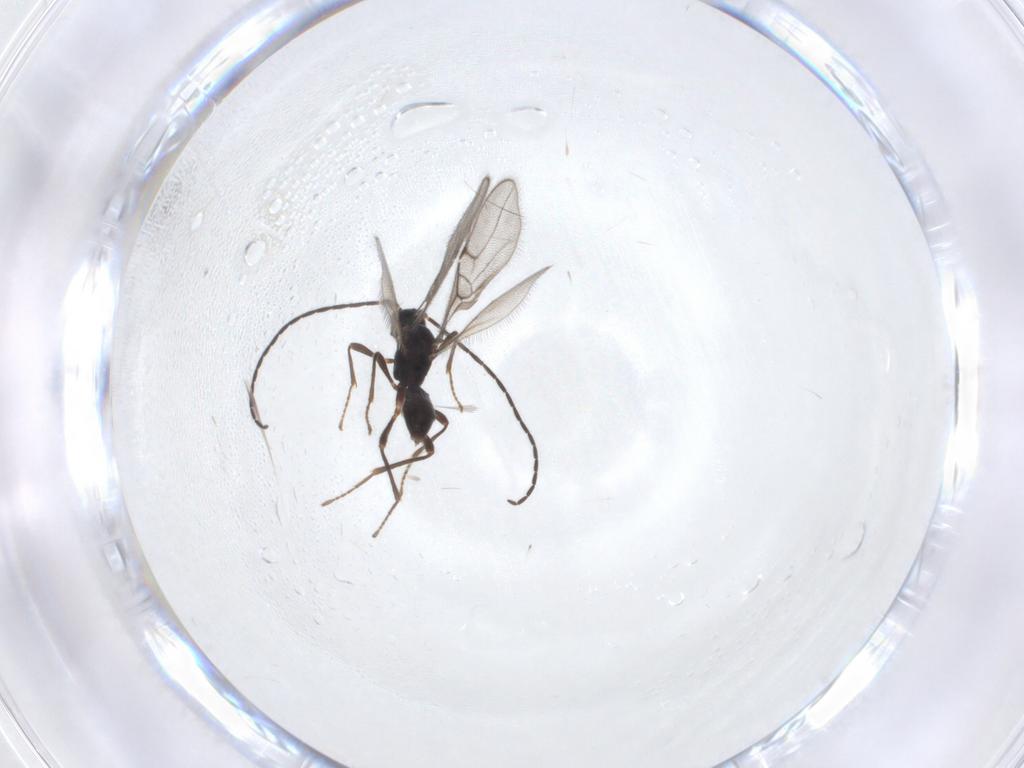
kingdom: Animalia
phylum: Arthropoda
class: Insecta
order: Hymenoptera
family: Braconidae
